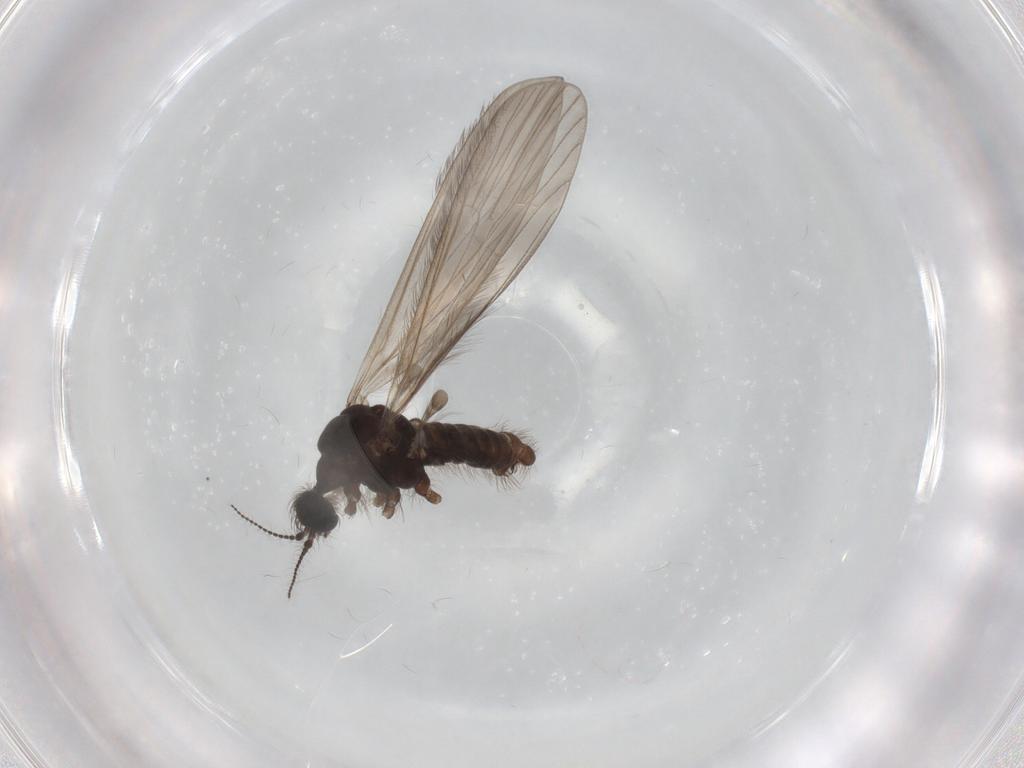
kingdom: Animalia
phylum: Arthropoda
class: Insecta
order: Diptera
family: Limoniidae
